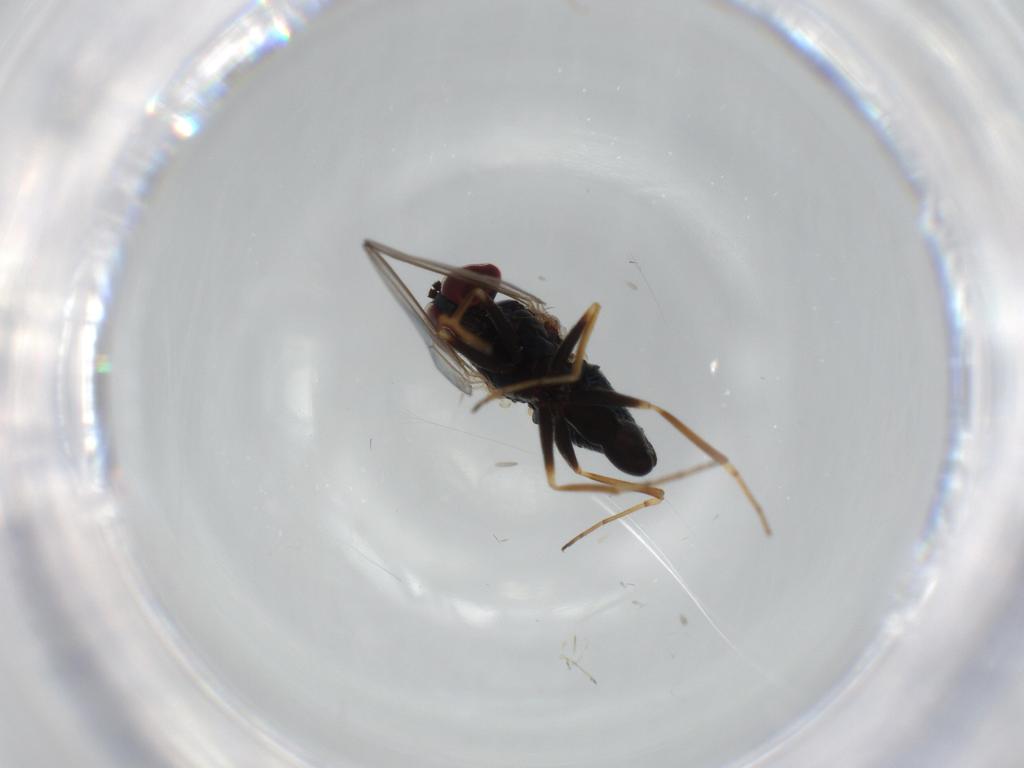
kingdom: Animalia
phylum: Arthropoda
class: Insecta
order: Diptera
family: Dolichopodidae
